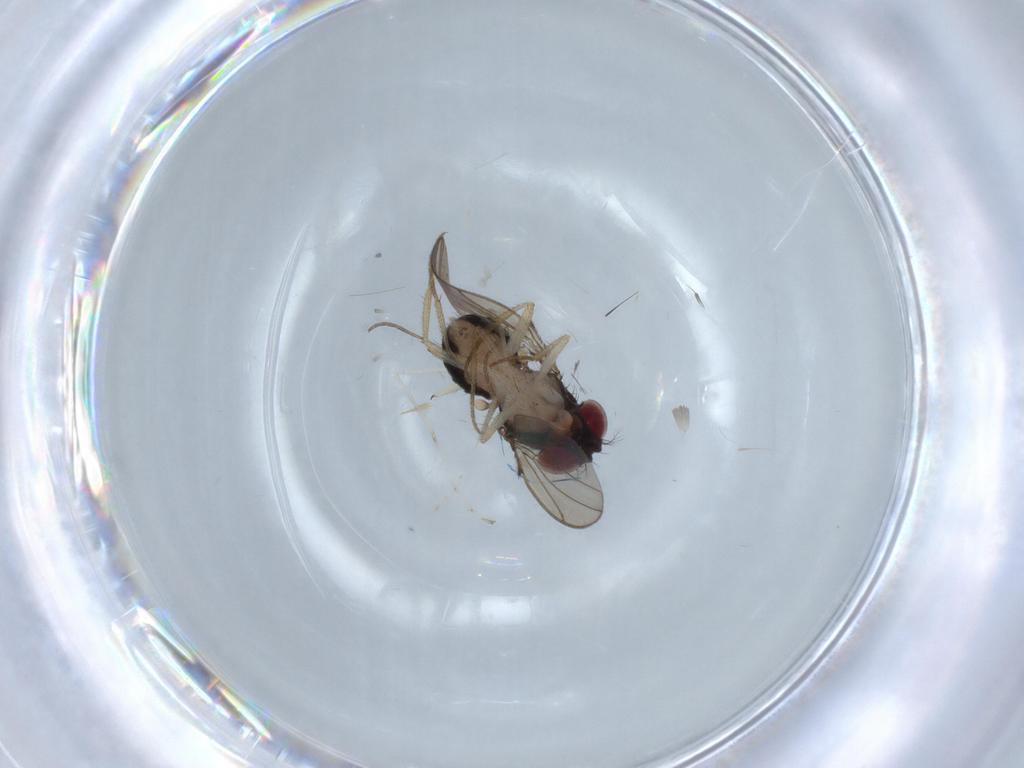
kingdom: Animalia
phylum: Arthropoda
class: Insecta
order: Diptera
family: Drosophilidae
